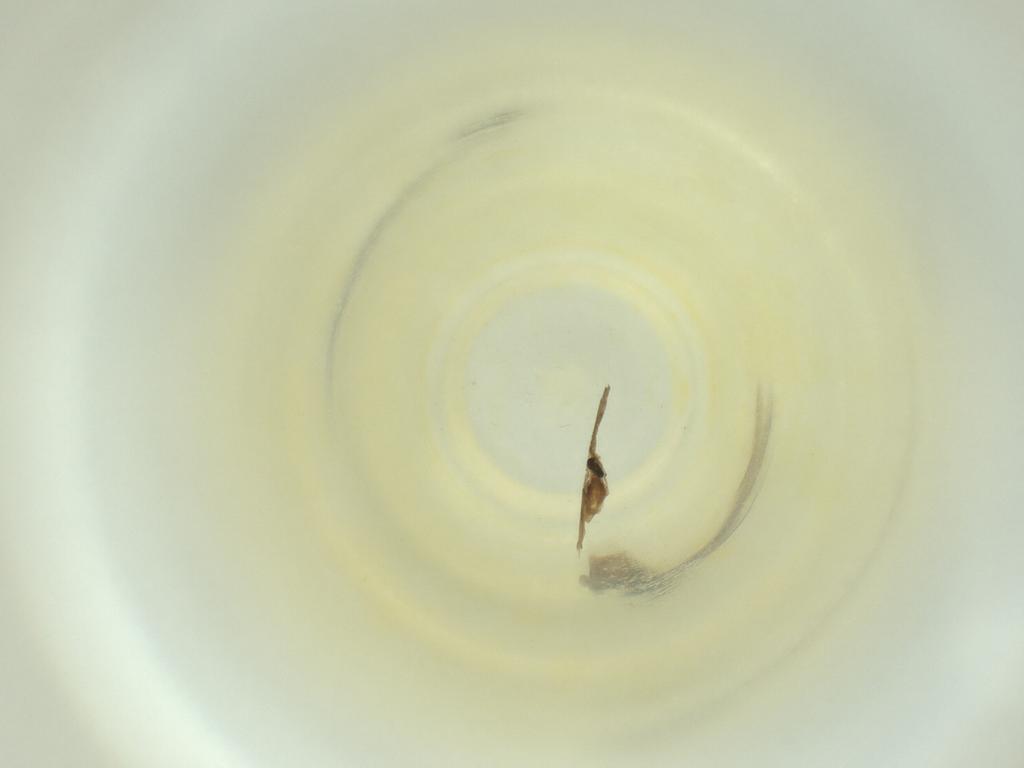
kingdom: Animalia
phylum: Arthropoda
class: Insecta
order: Diptera
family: Cecidomyiidae
